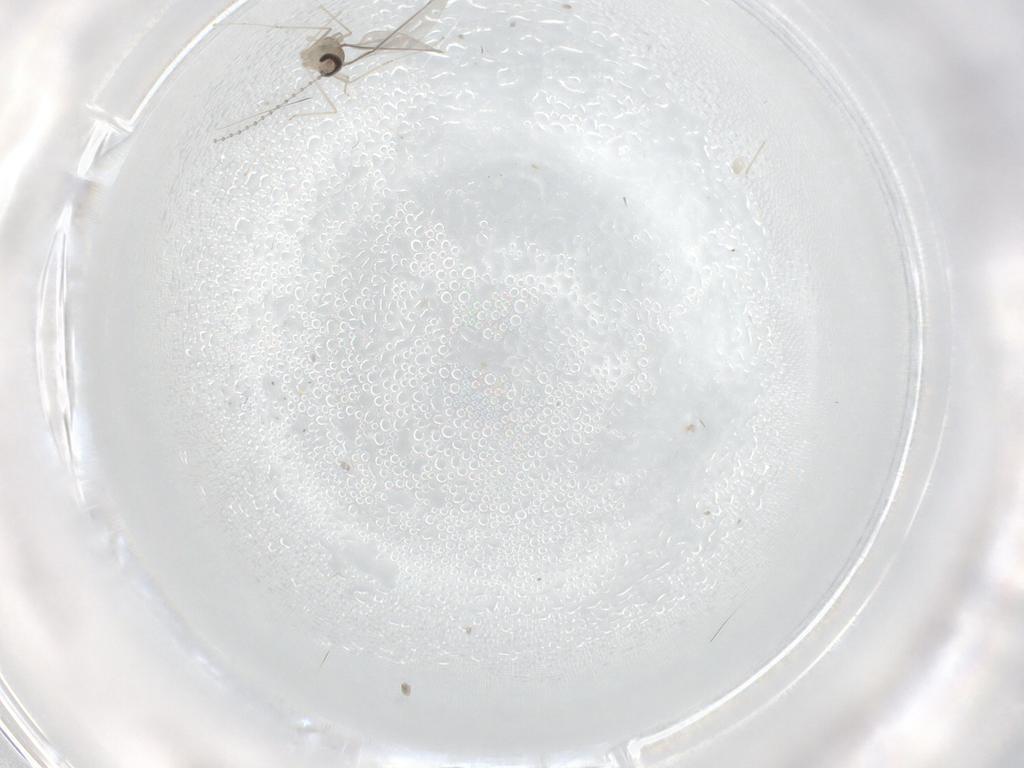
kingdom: Animalia
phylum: Arthropoda
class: Insecta
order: Diptera
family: Cecidomyiidae
